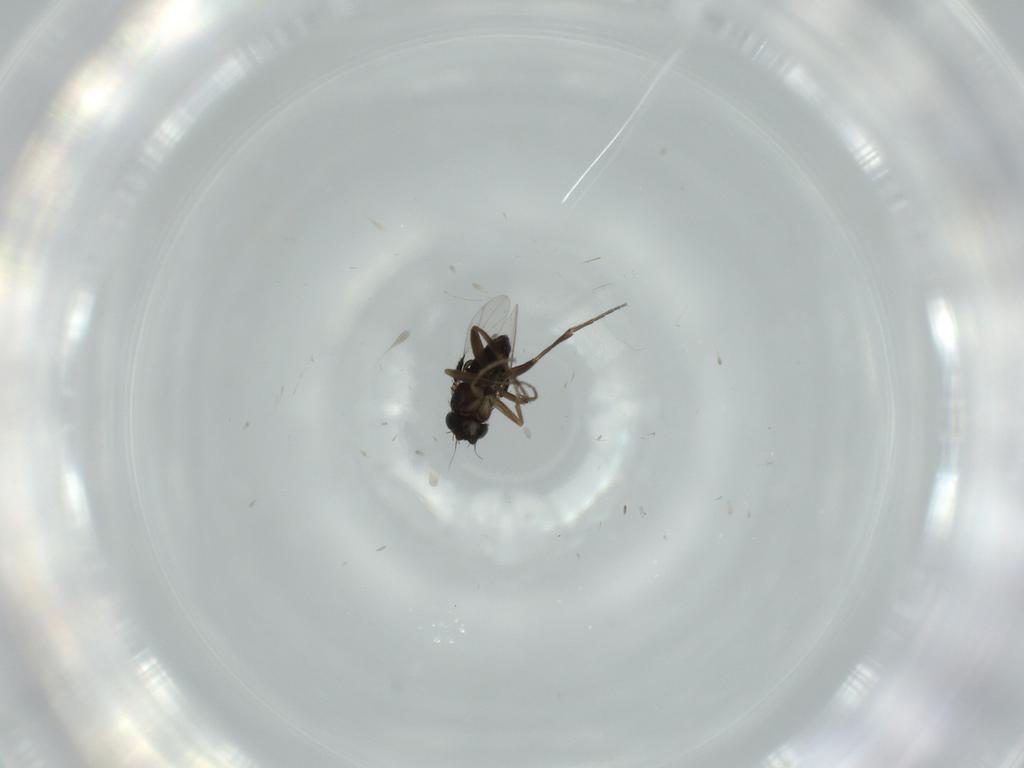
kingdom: Animalia
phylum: Arthropoda
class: Insecta
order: Diptera
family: Phoridae
